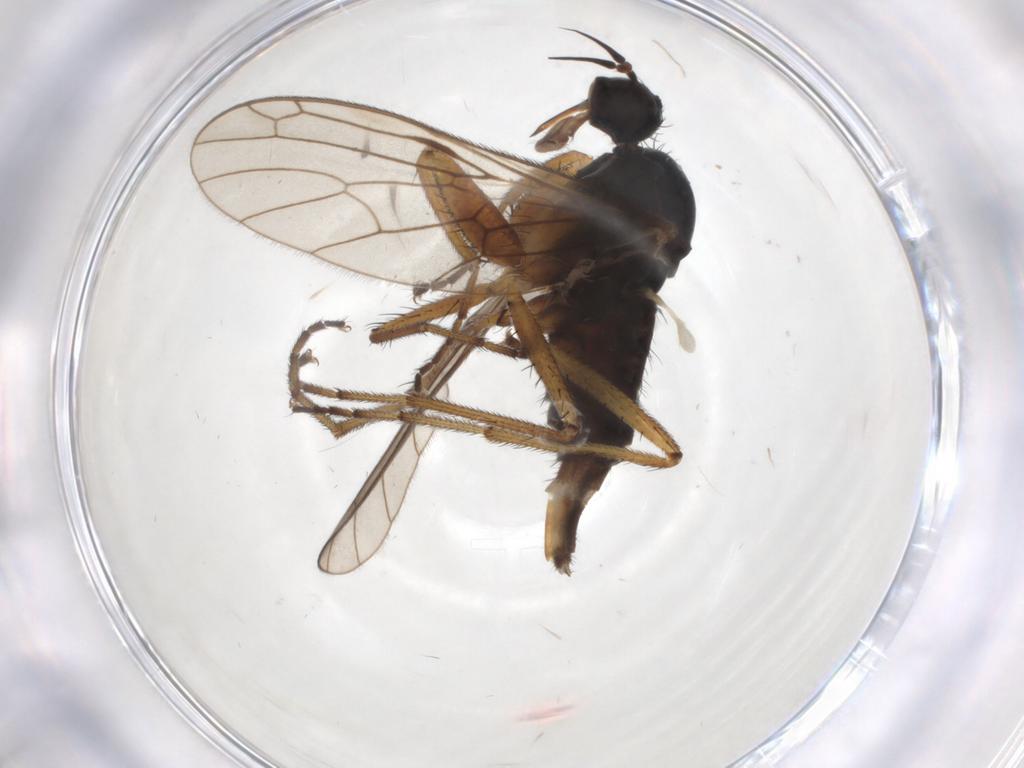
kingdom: Animalia
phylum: Arthropoda
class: Insecta
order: Diptera
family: Chironomidae
